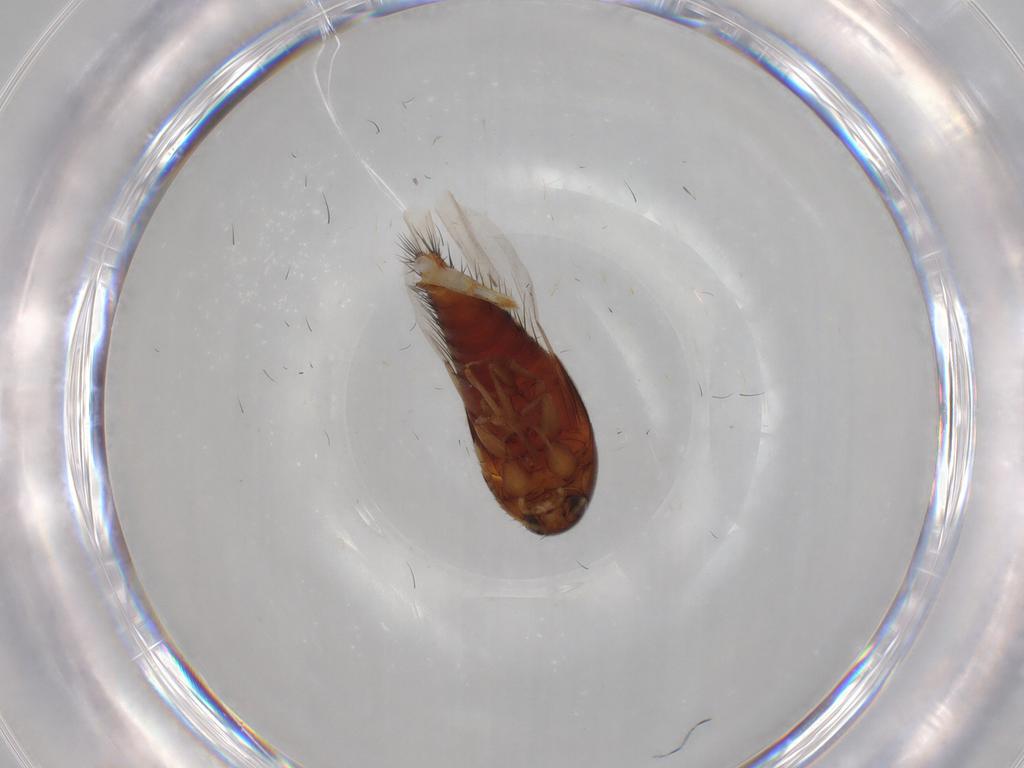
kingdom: Animalia
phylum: Arthropoda
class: Insecta
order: Coleoptera
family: Staphylinidae
